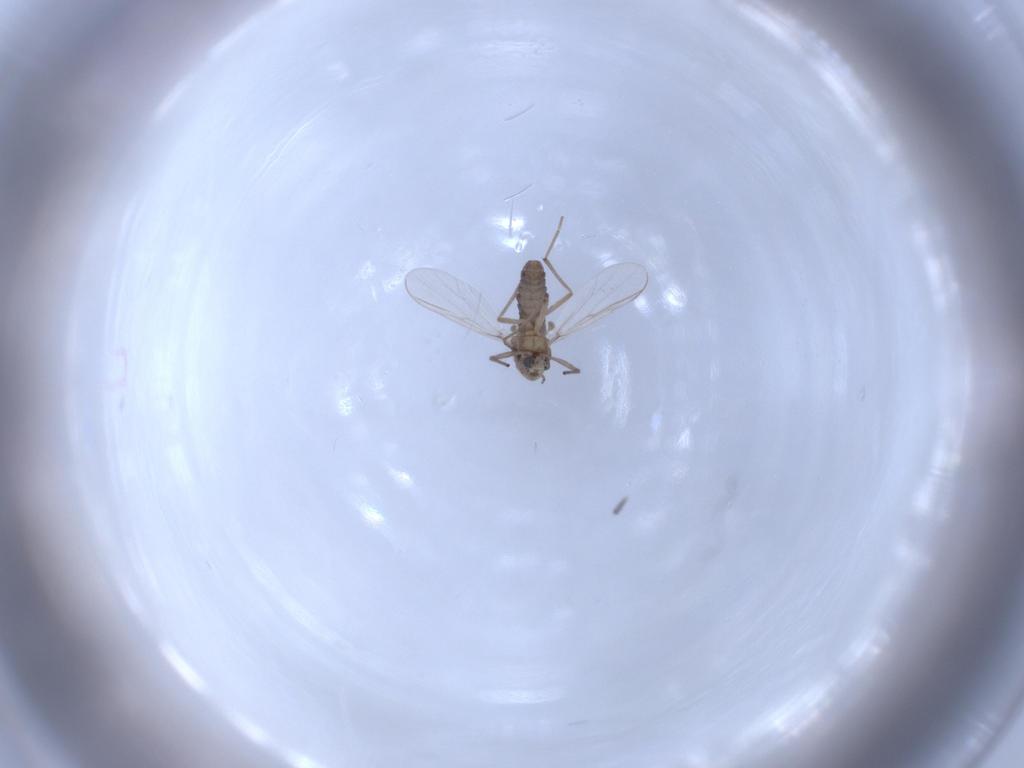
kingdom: Animalia
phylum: Arthropoda
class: Insecta
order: Diptera
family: Chironomidae
